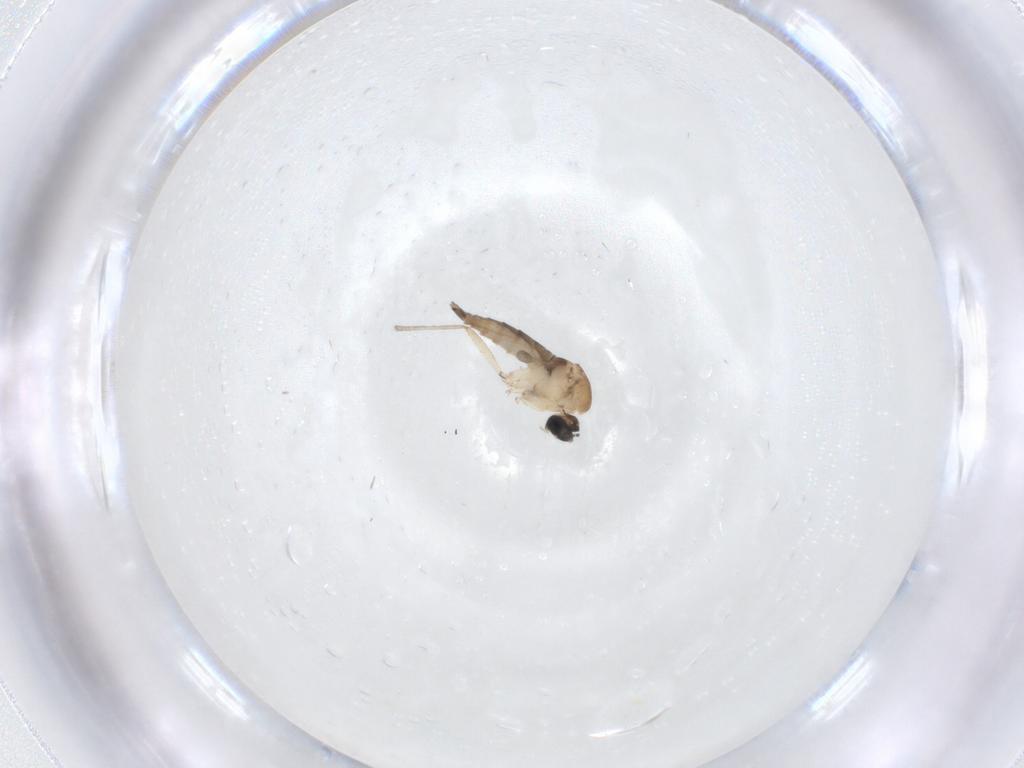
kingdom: Animalia
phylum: Arthropoda
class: Insecta
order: Diptera
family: Sciaridae
